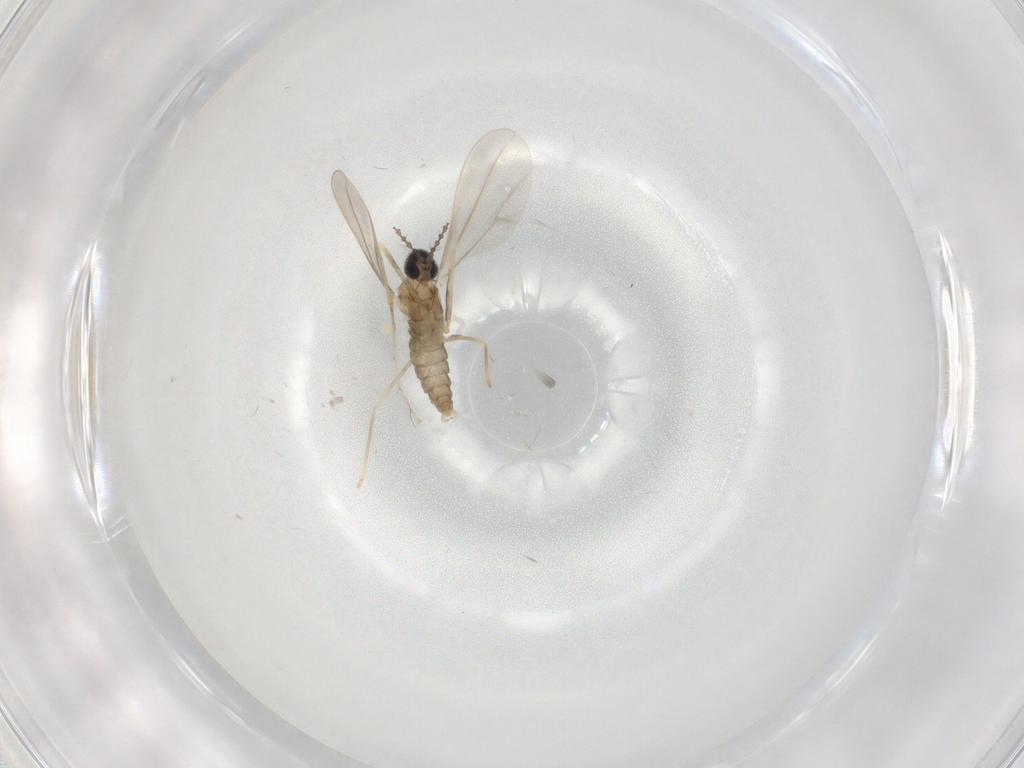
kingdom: Animalia
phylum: Arthropoda
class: Insecta
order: Diptera
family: Cecidomyiidae
